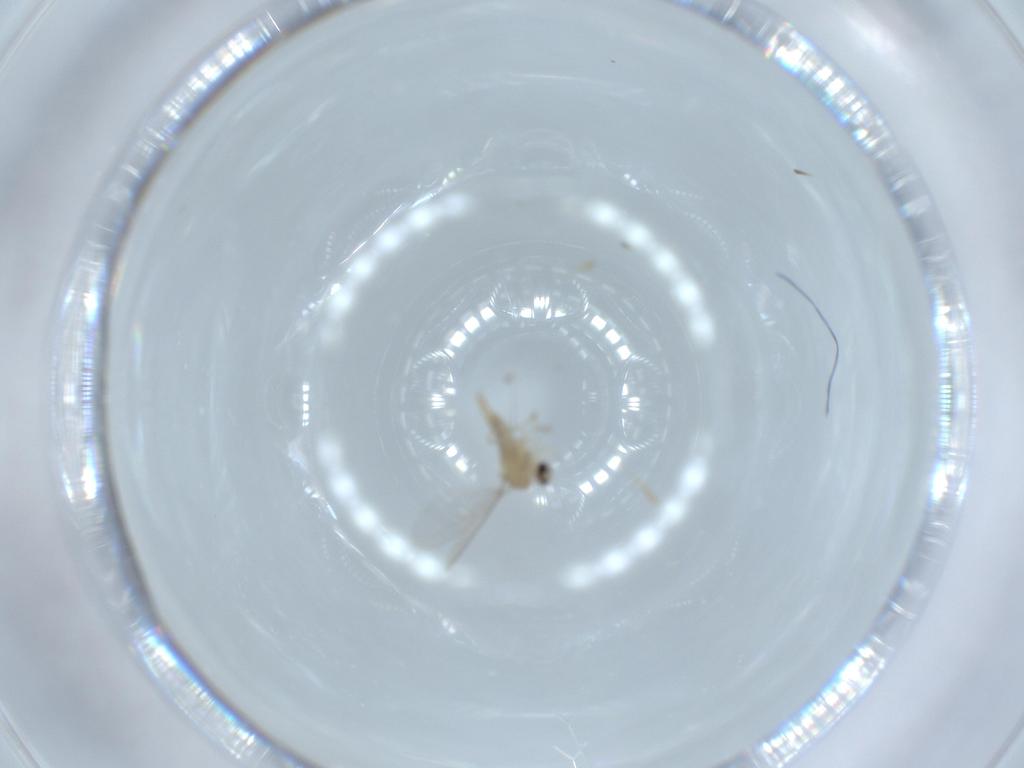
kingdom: Animalia
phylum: Arthropoda
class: Insecta
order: Diptera
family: Cecidomyiidae
